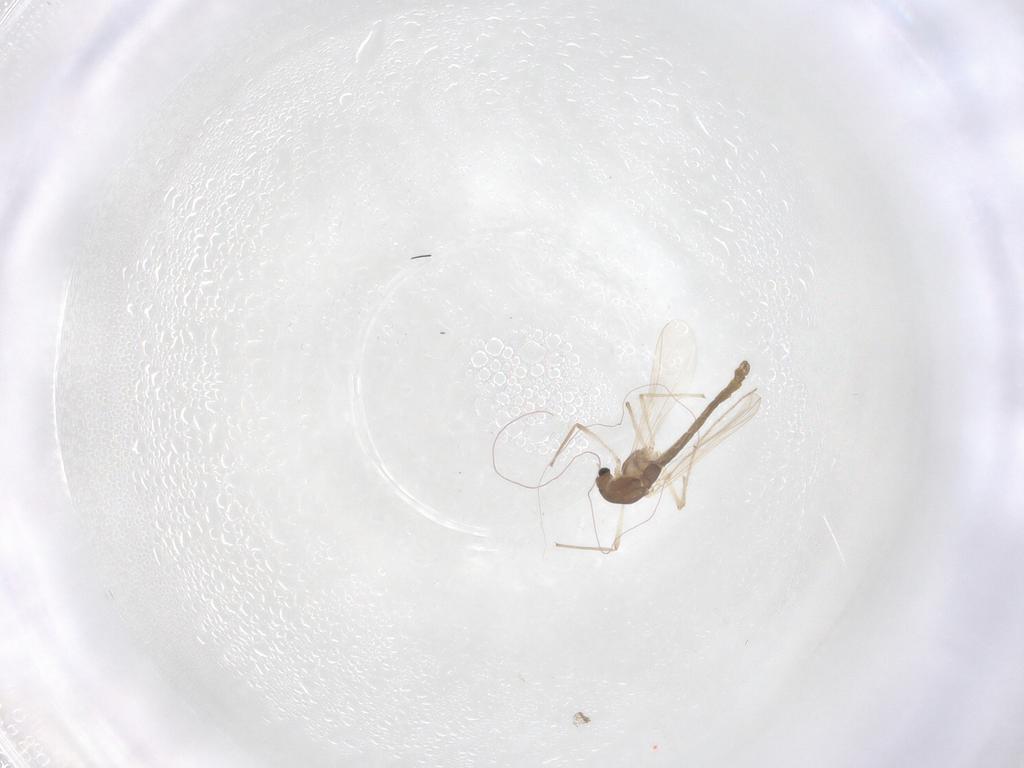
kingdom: Animalia
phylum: Arthropoda
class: Insecta
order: Diptera
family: Chironomidae
